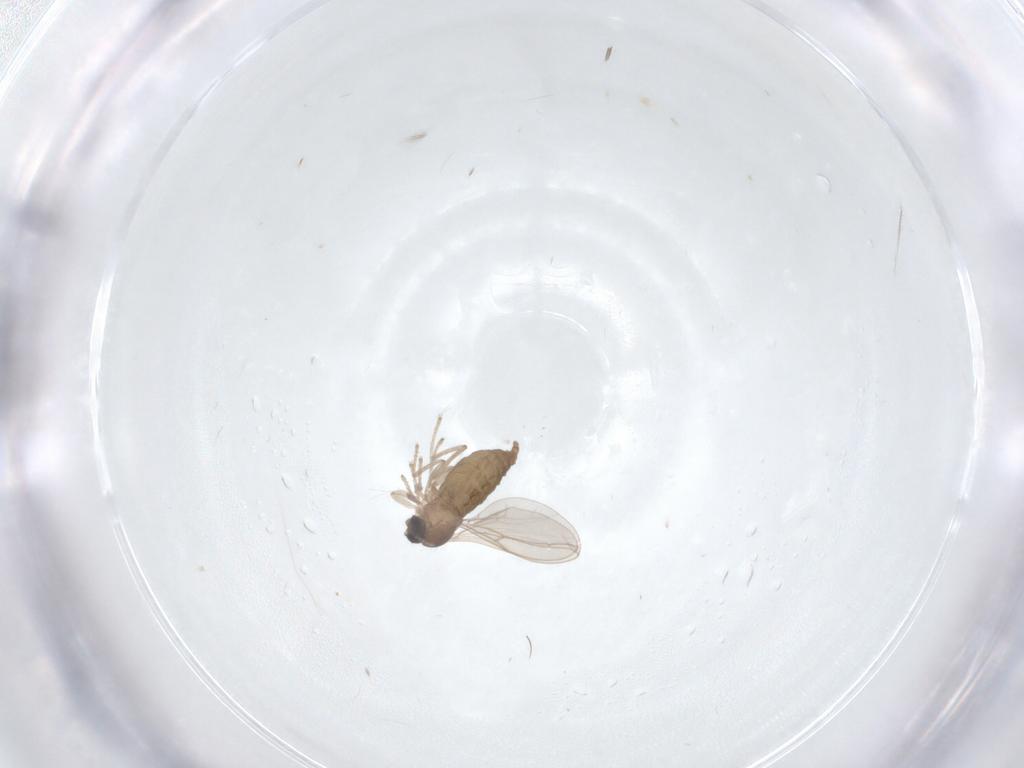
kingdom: Animalia
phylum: Arthropoda
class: Insecta
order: Diptera
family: Cecidomyiidae
